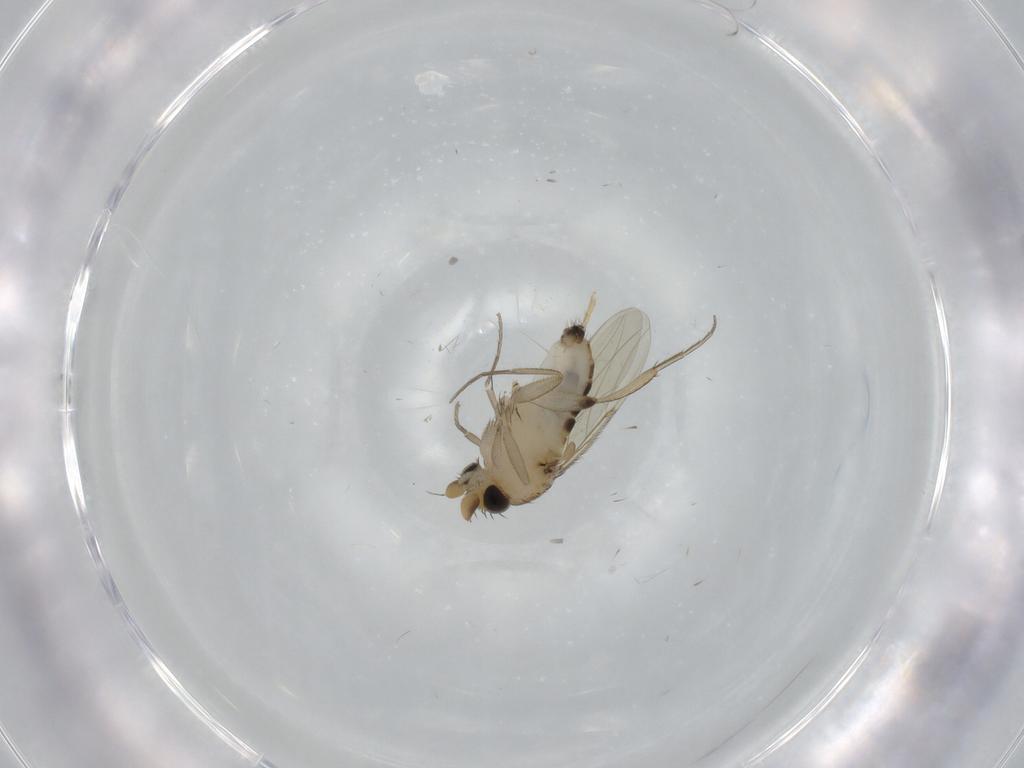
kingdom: Animalia
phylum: Arthropoda
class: Insecta
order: Diptera
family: Phoridae
